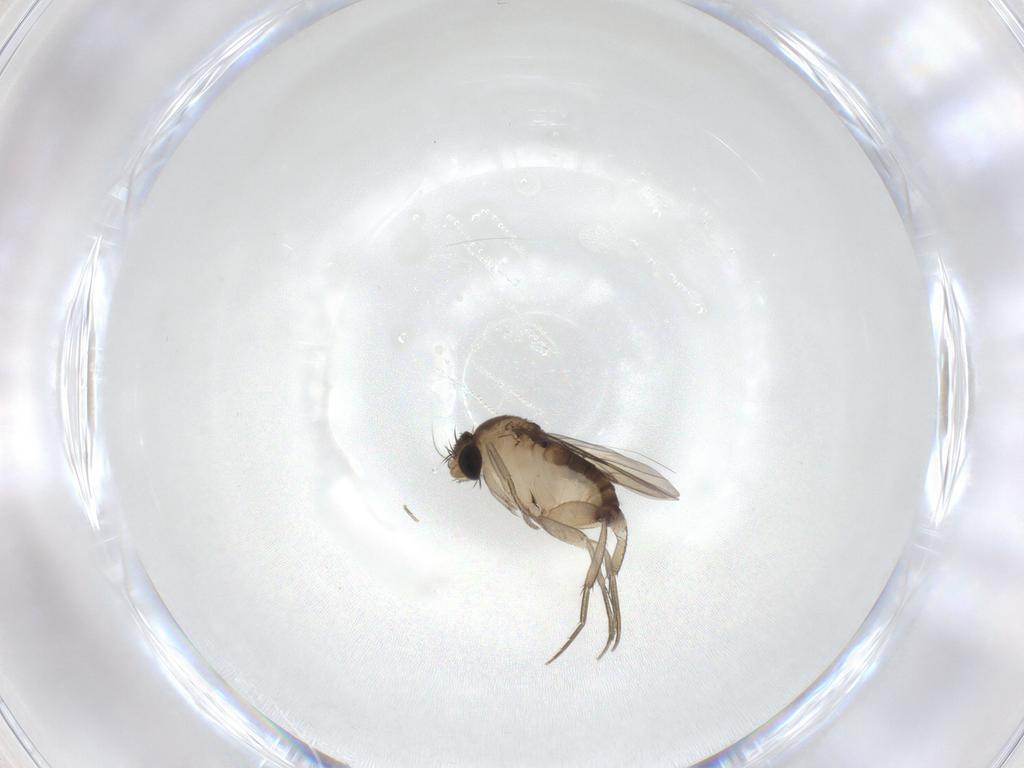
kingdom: Animalia
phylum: Arthropoda
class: Insecta
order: Diptera
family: Phoridae
